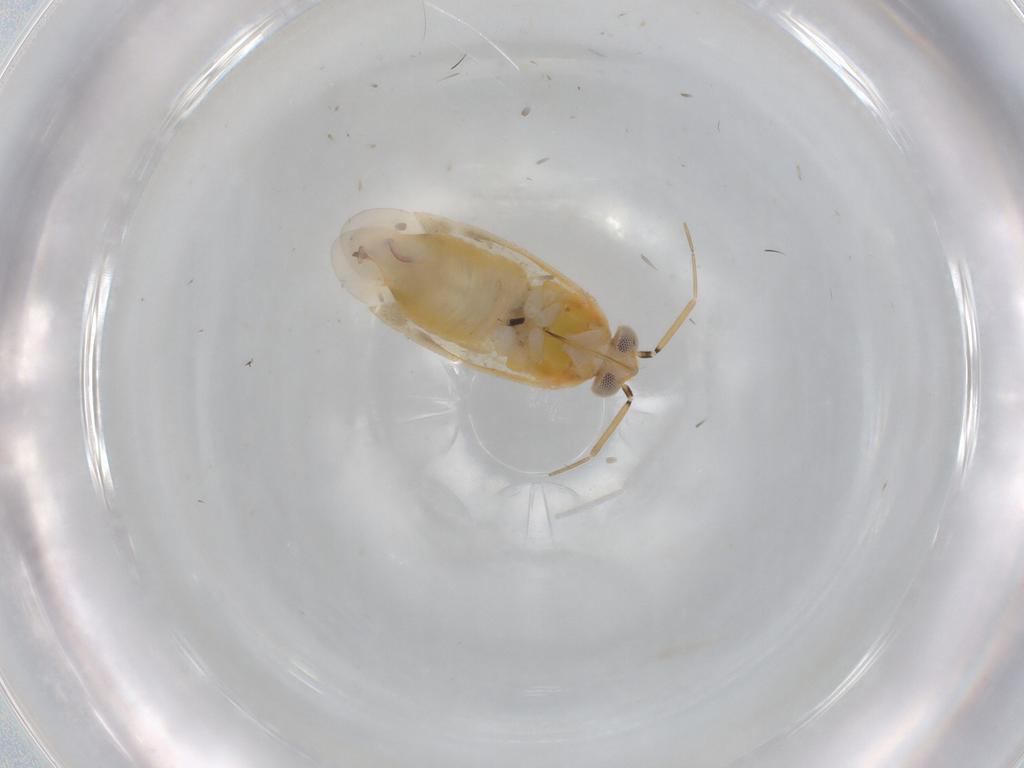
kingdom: Animalia
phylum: Arthropoda
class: Insecta
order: Hemiptera
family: Miridae
